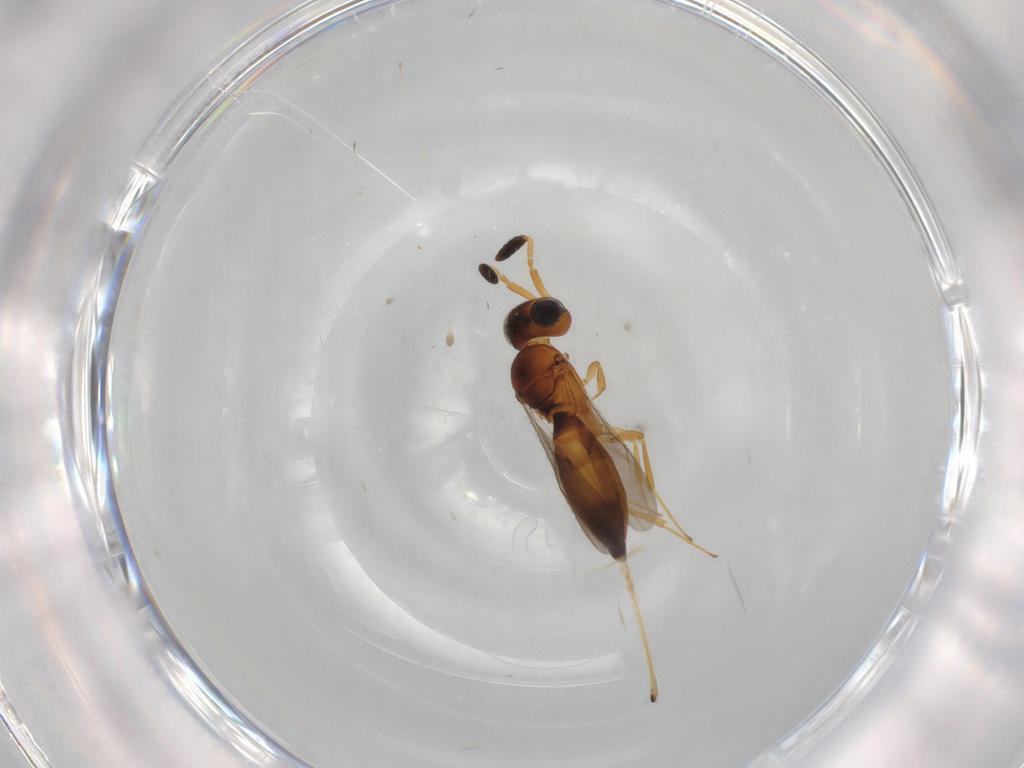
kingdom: Animalia
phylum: Arthropoda
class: Insecta
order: Hymenoptera
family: Scelionidae
